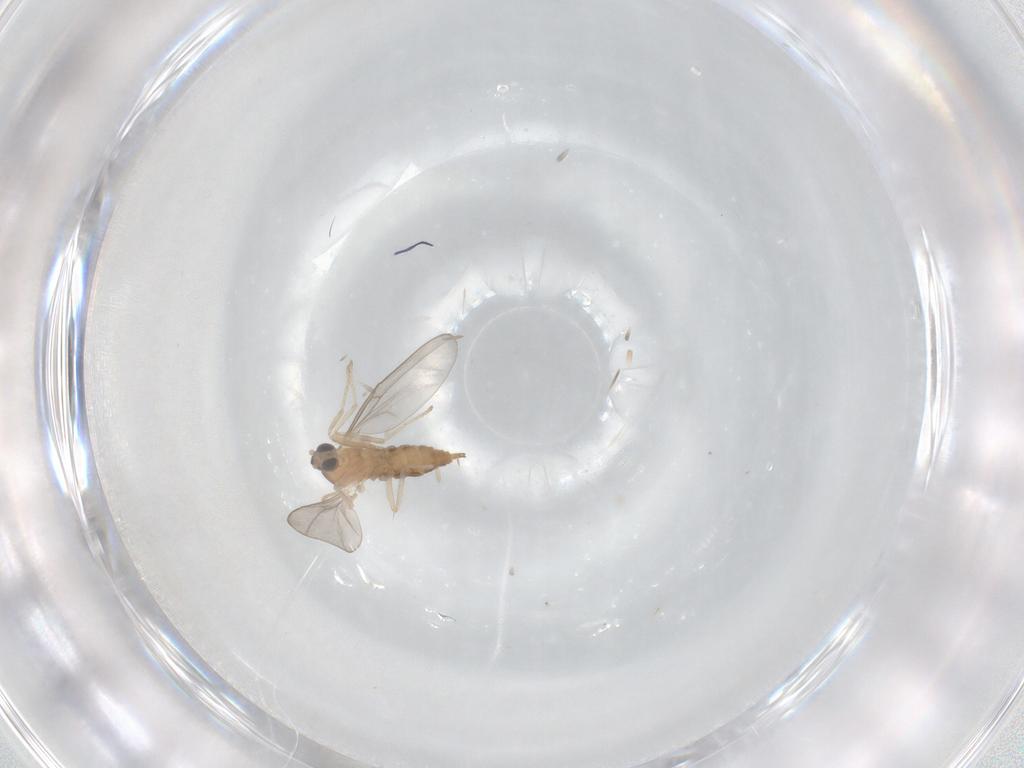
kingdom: Animalia
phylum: Arthropoda
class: Insecta
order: Diptera
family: Cecidomyiidae
